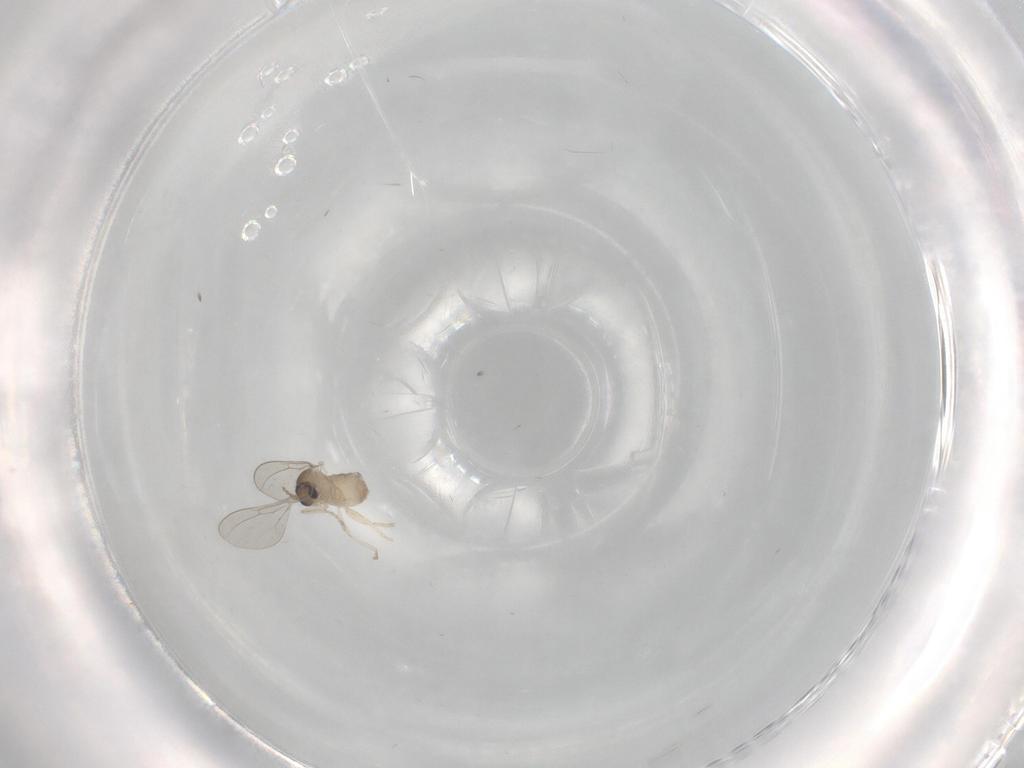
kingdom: Animalia
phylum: Arthropoda
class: Insecta
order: Diptera
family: Cecidomyiidae
